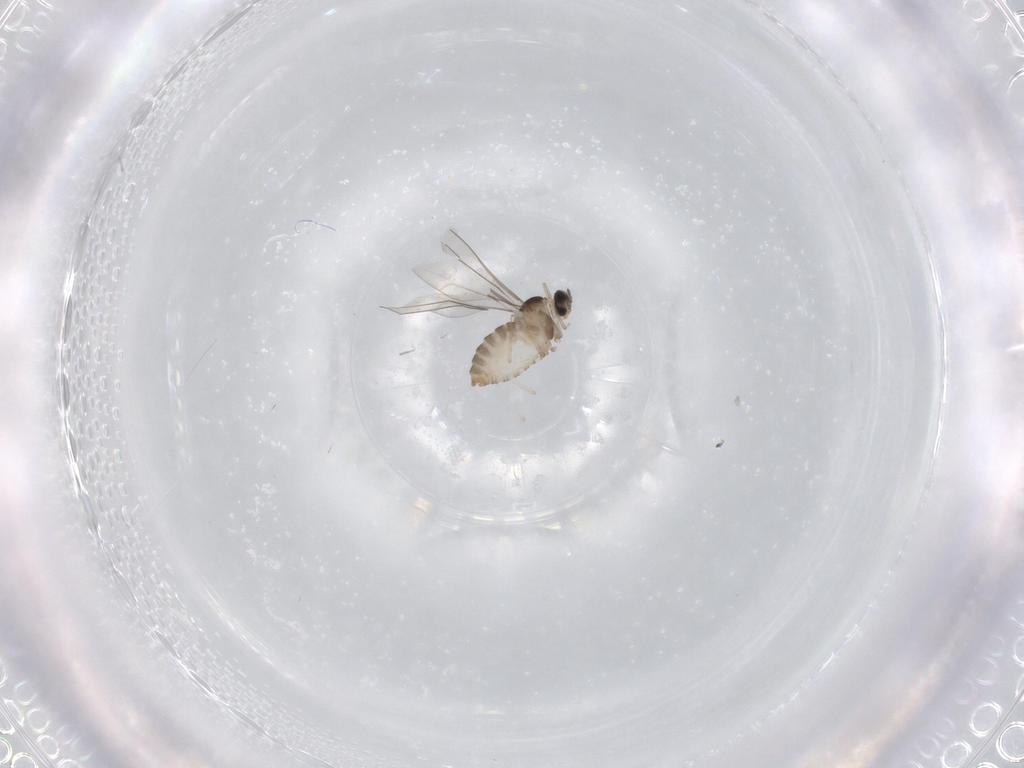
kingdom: Animalia
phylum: Arthropoda
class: Insecta
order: Diptera
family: Cecidomyiidae
